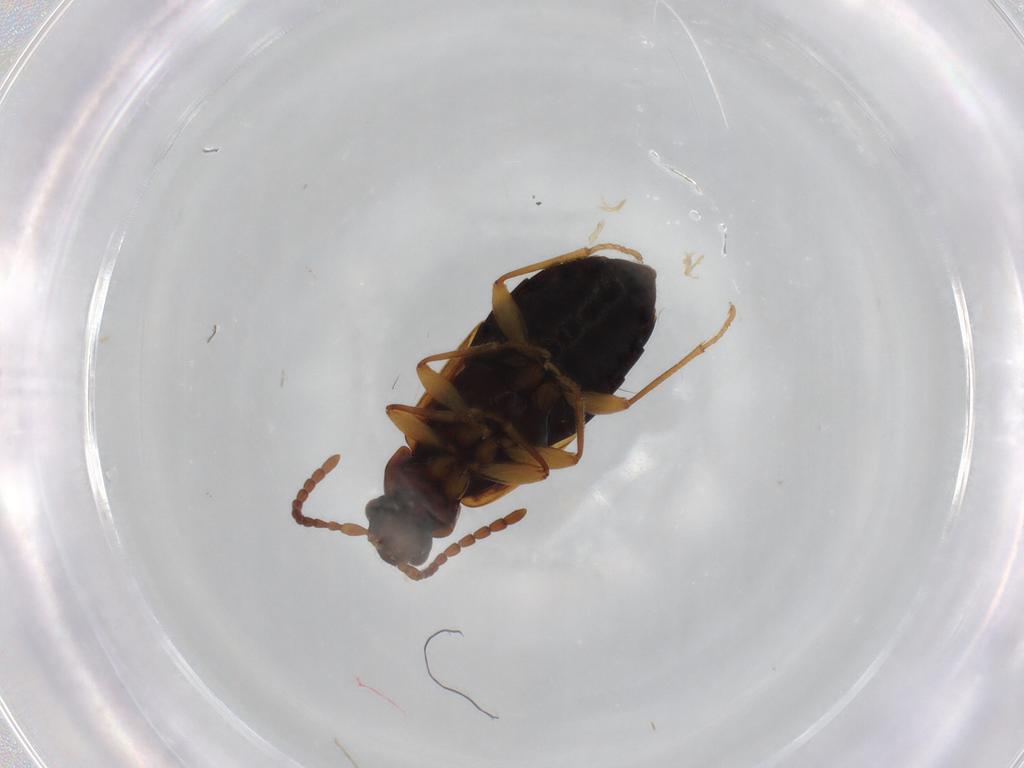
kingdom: Animalia
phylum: Arthropoda
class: Insecta
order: Coleoptera
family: Staphylinidae
